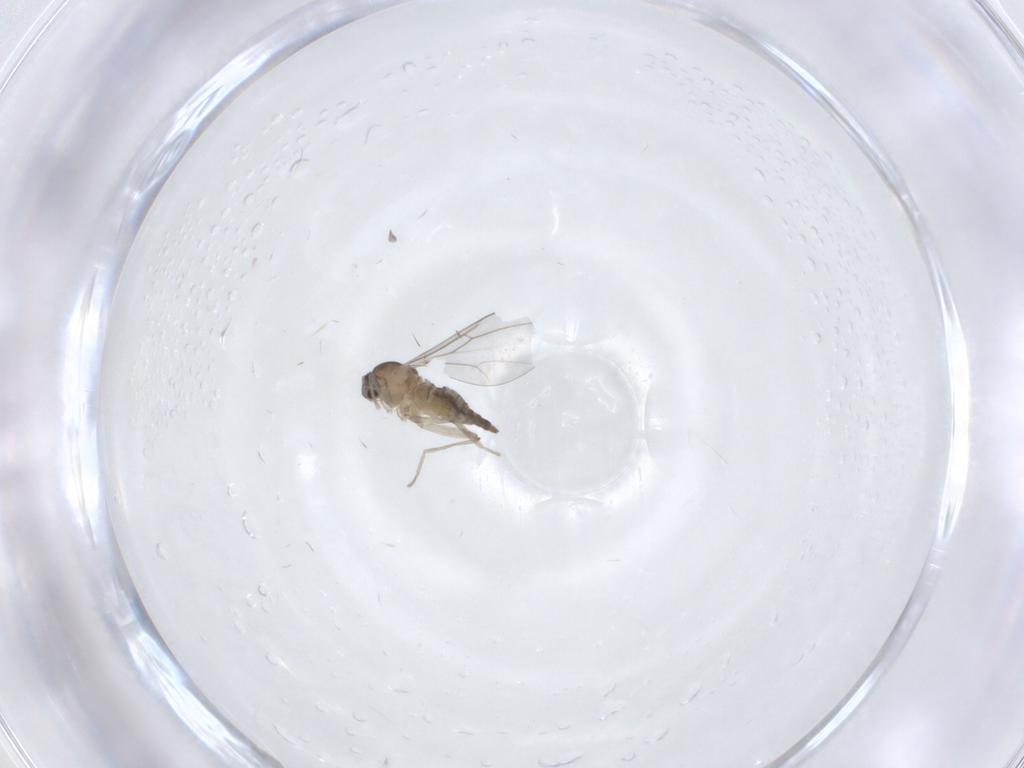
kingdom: Animalia
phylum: Arthropoda
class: Insecta
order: Diptera
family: Cecidomyiidae
